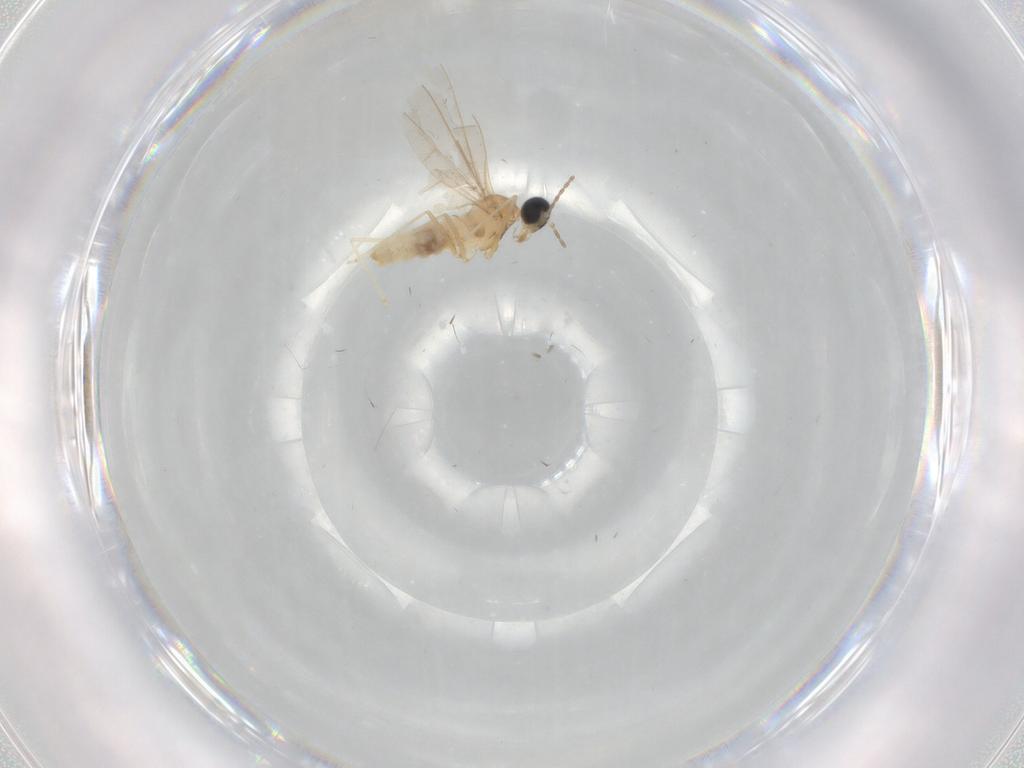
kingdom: Animalia
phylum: Arthropoda
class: Insecta
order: Diptera
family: Cecidomyiidae
